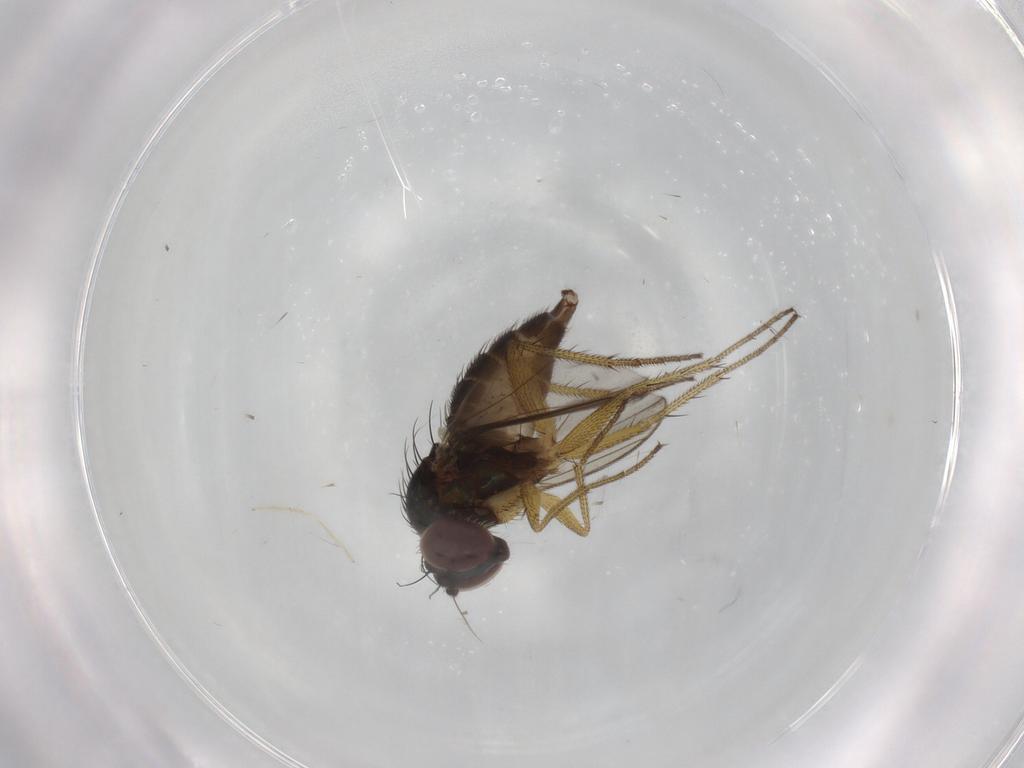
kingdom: Animalia
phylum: Arthropoda
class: Insecta
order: Diptera
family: Dolichopodidae
